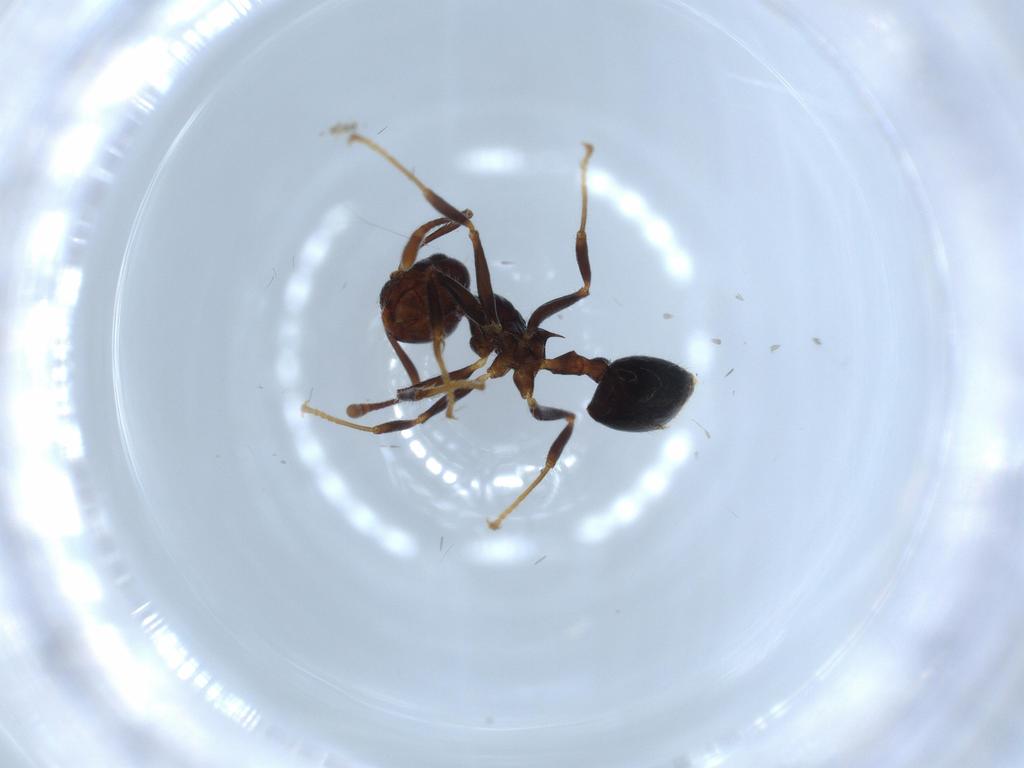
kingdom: Animalia
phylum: Arthropoda
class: Insecta
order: Hymenoptera
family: Formicidae
